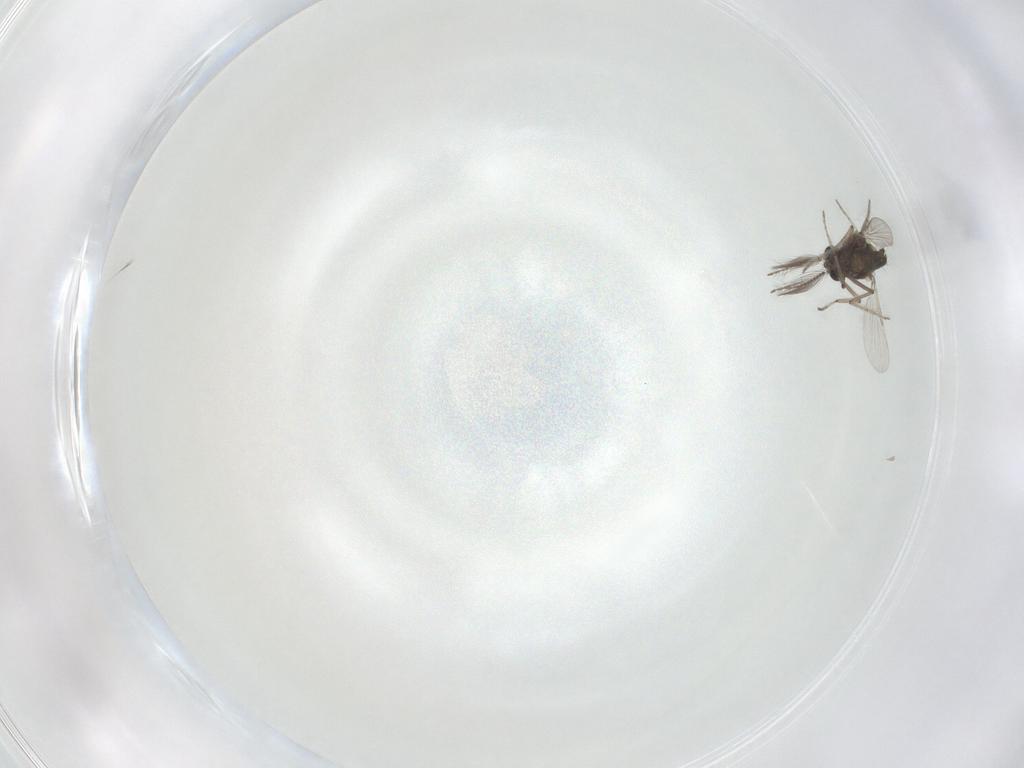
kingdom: Animalia
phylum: Arthropoda
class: Insecta
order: Diptera
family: Ceratopogonidae
